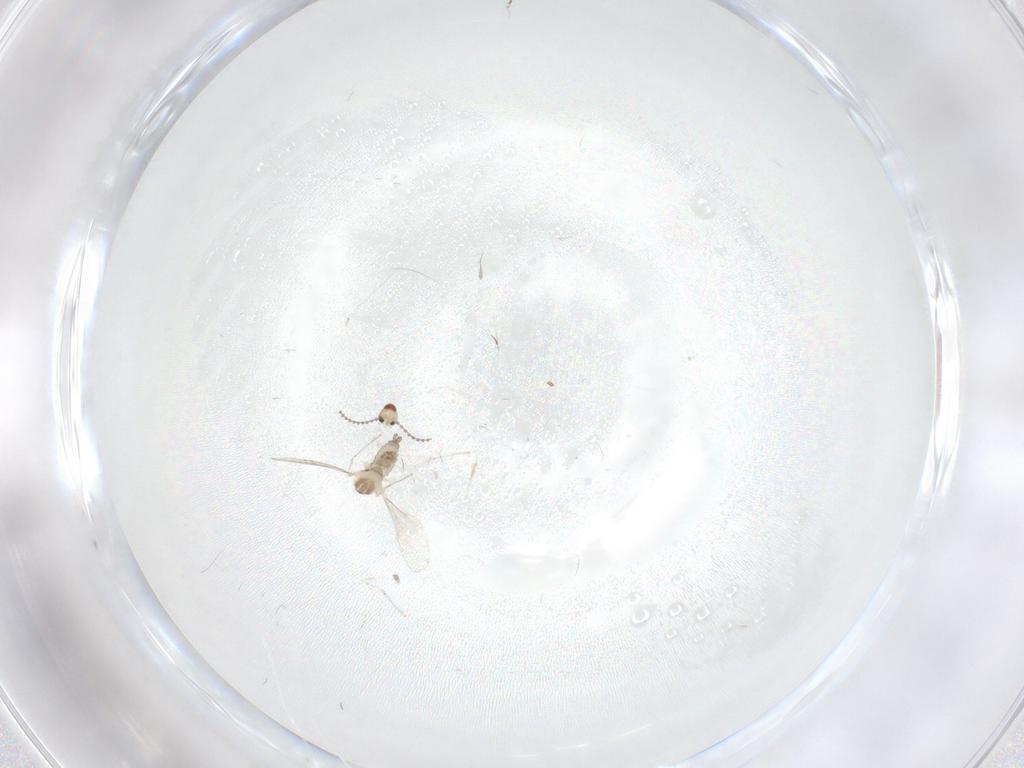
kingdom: Animalia
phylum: Arthropoda
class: Insecta
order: Diptera
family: Cecidomyiidae
